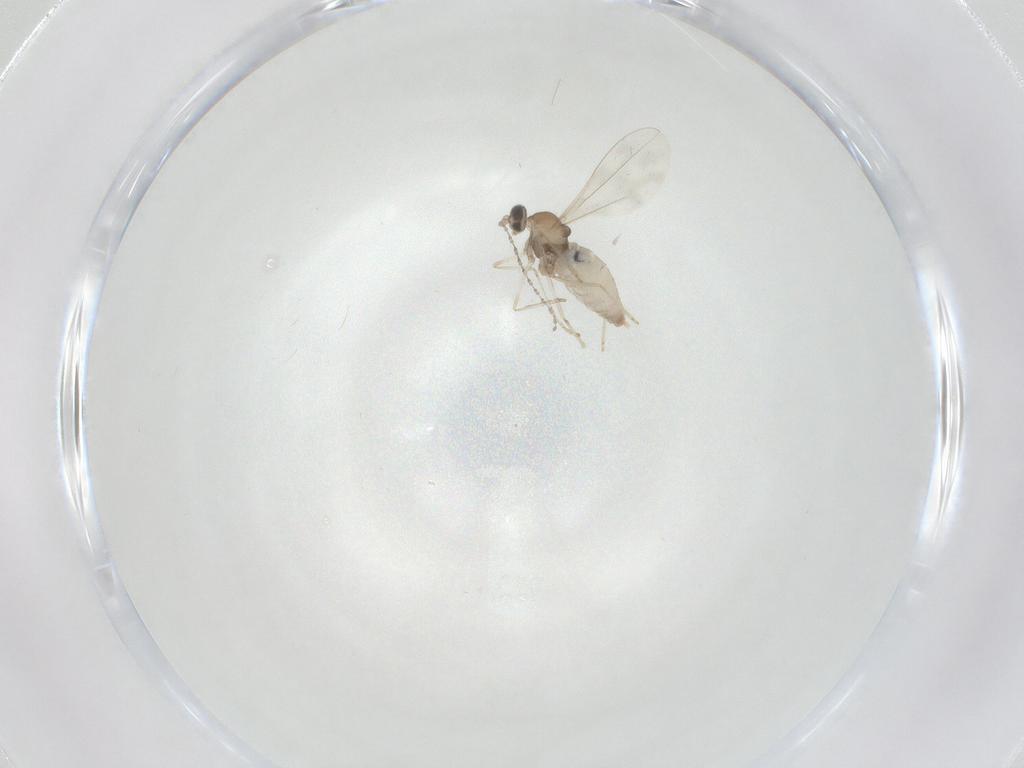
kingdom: Animalia
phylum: Arthropoda
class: Insecta
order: Diptera
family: Cecidomyiidae
